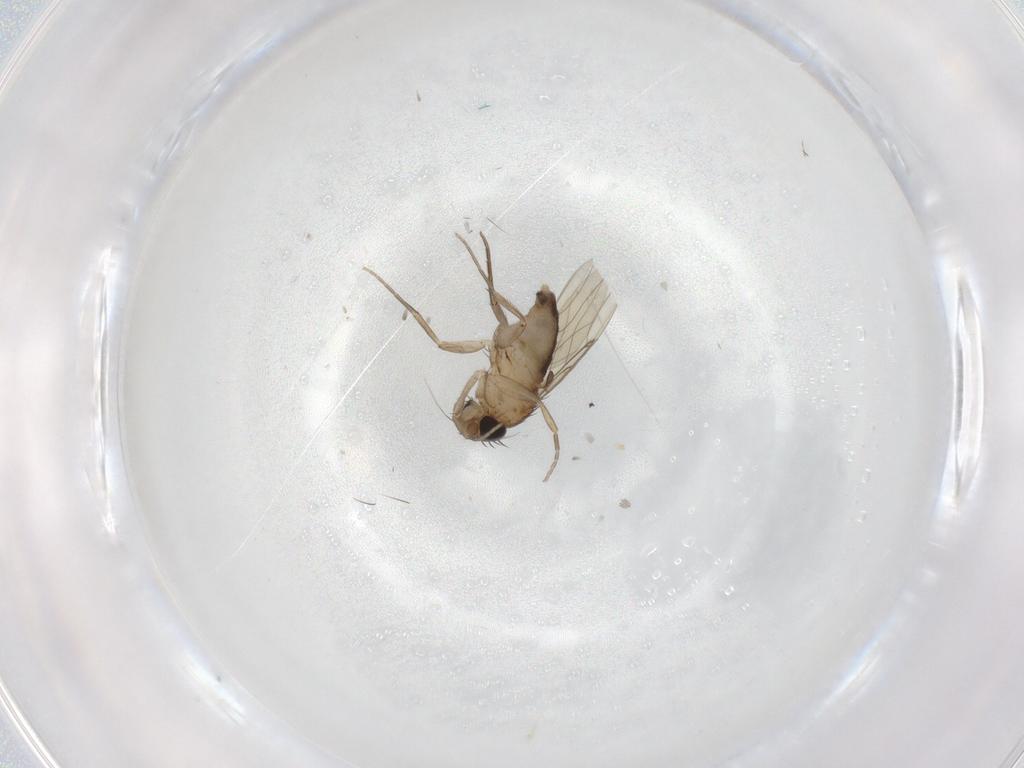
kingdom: Animalia
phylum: Arthropoda
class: Insecta
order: Diptera
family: Phoridae
